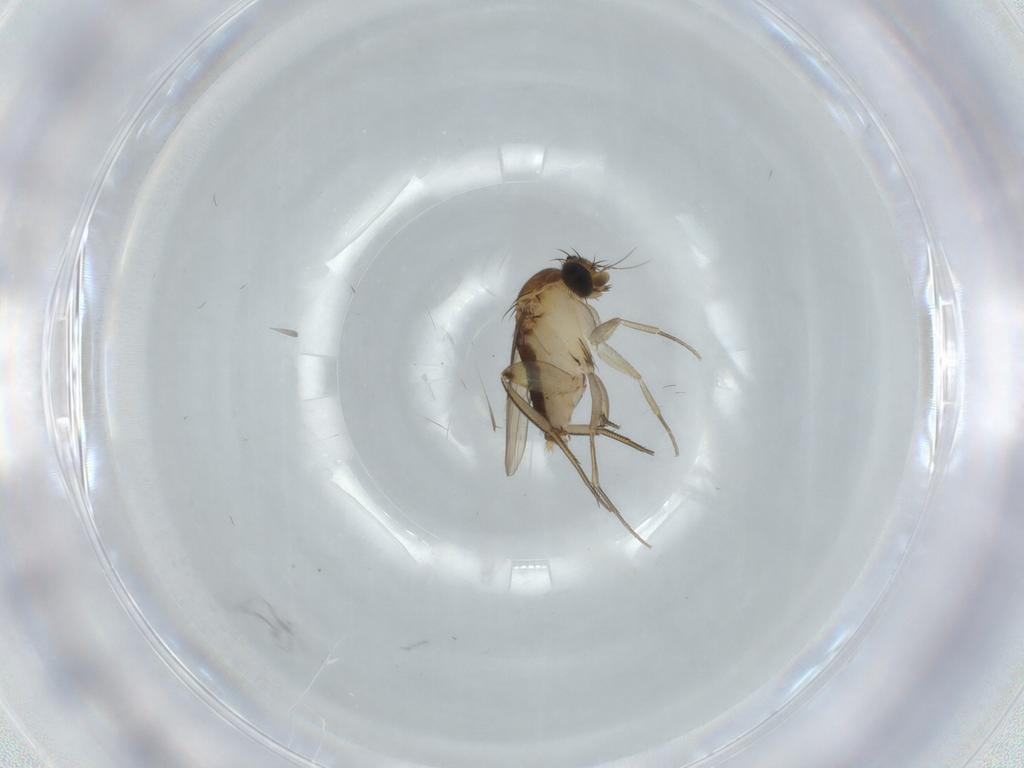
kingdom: Animalia
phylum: Arthropoda
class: Insecta
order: Diptera
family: Phoridae
